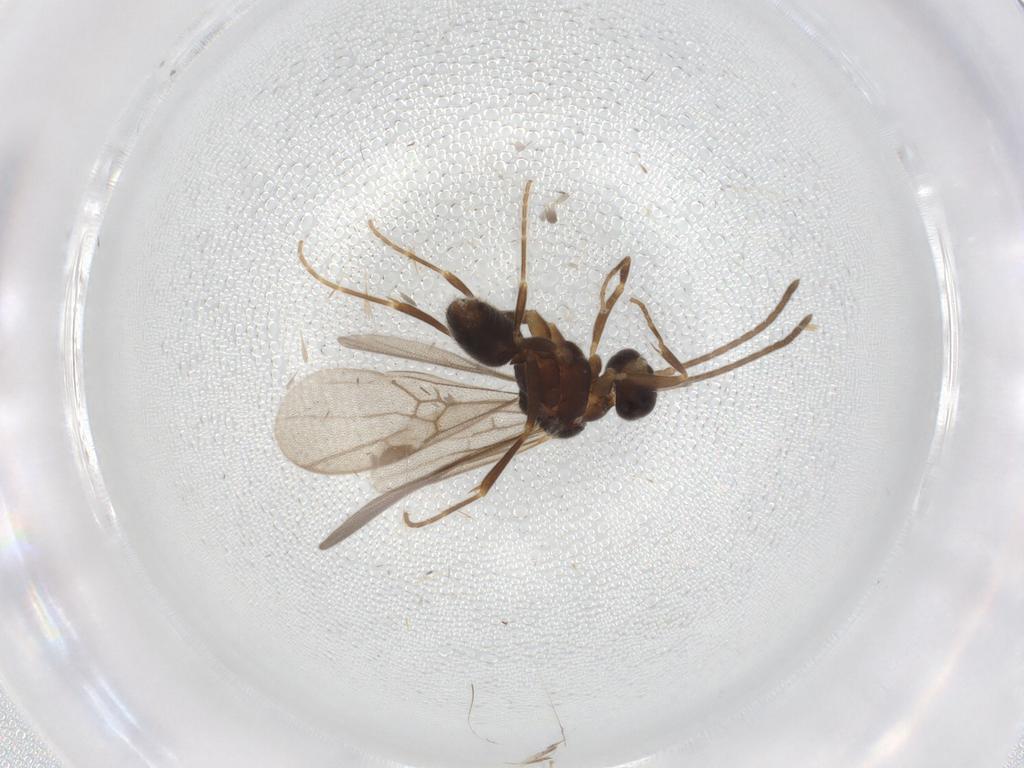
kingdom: Animalia
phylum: Arthropoda
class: Insecta
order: Hymenoptera
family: Formicidae
